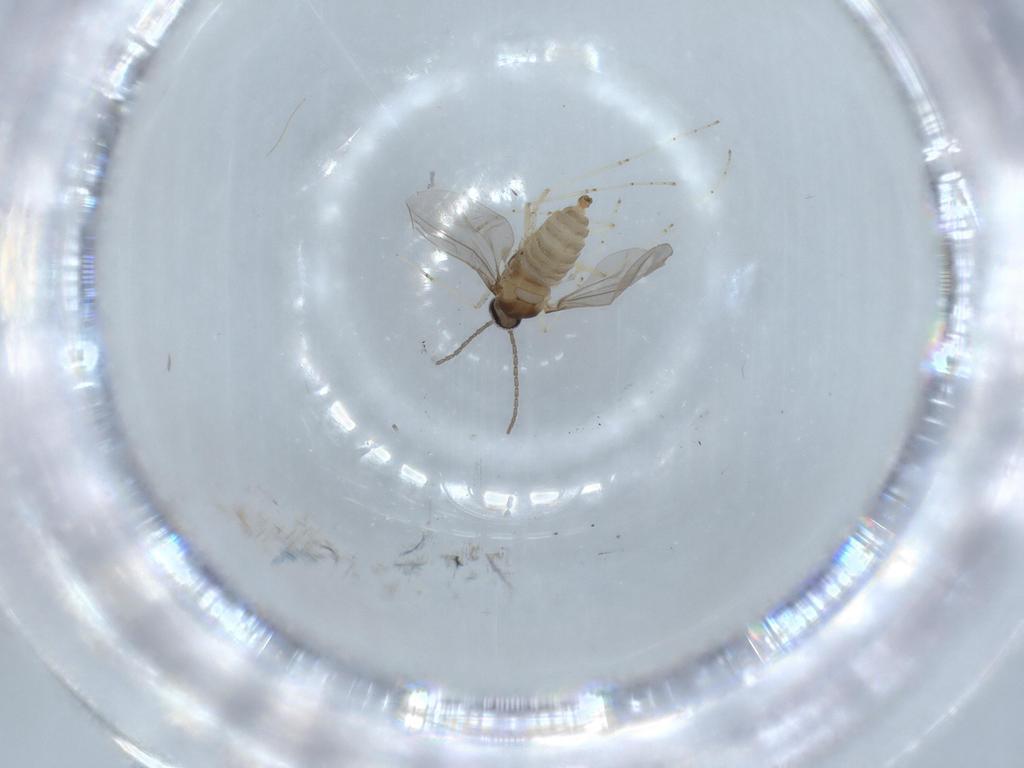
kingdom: Animalia
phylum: Arthropoda
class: Insecta
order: Diptera
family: Cecidomyiidae
